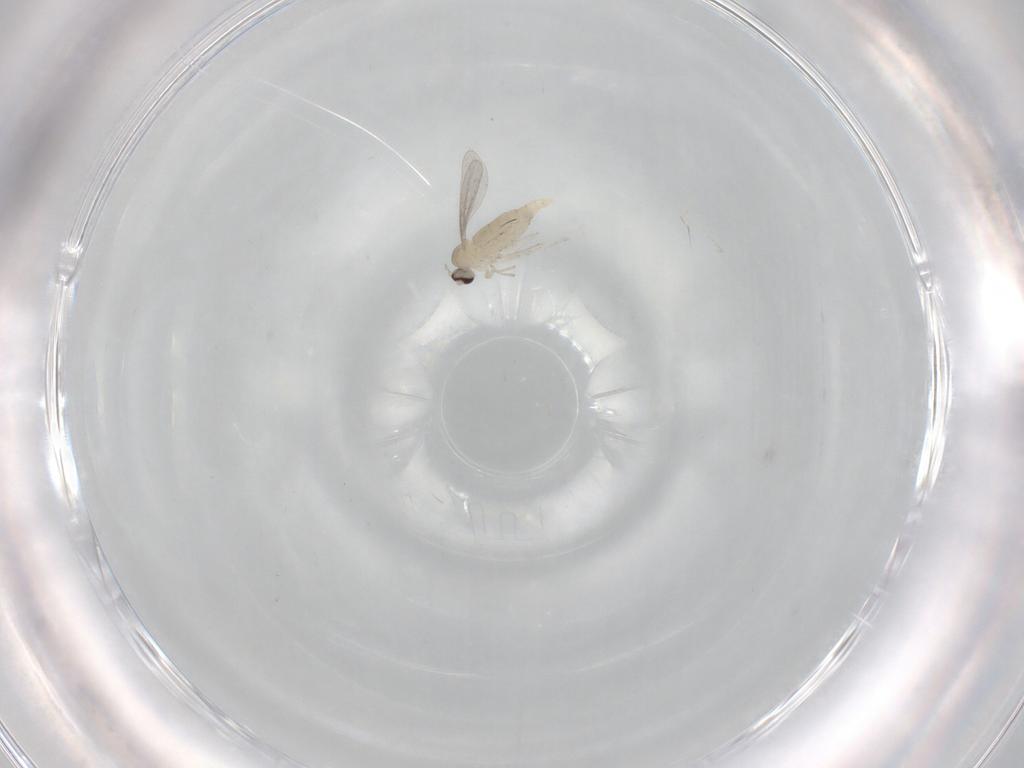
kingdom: Animalia
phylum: Arthropoda
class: Insecta
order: Diptera
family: Cecidomyiidae
